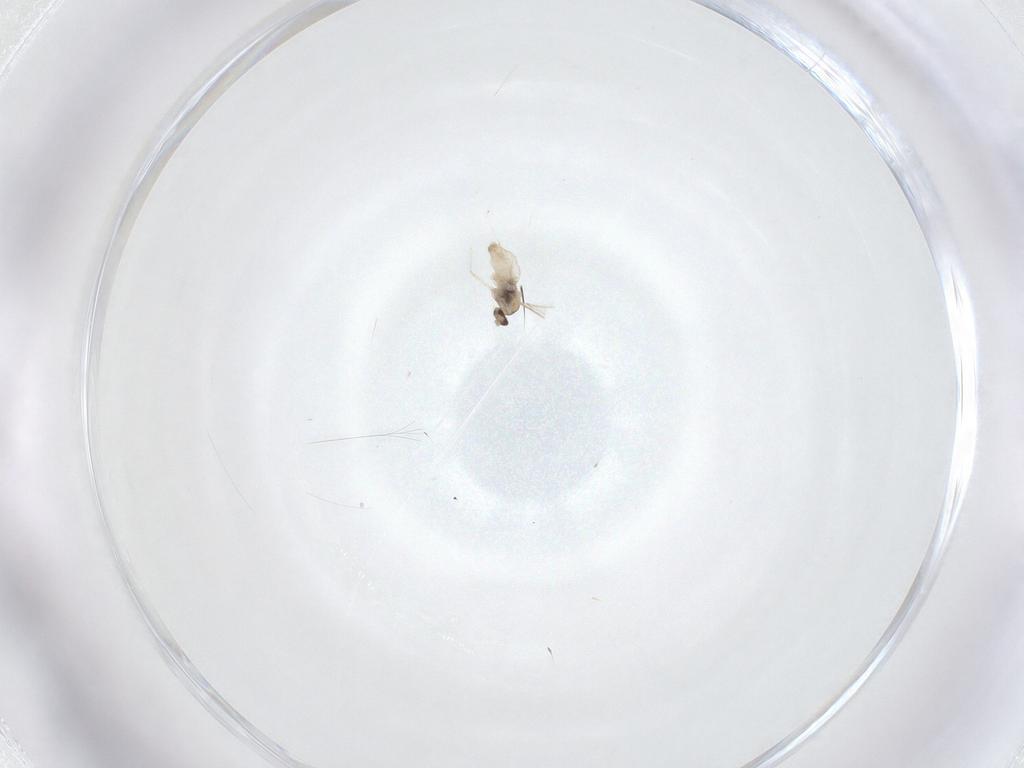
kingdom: Animalia
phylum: Arthropoda
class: Insecta
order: Diptera
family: Cecidomyiidae
